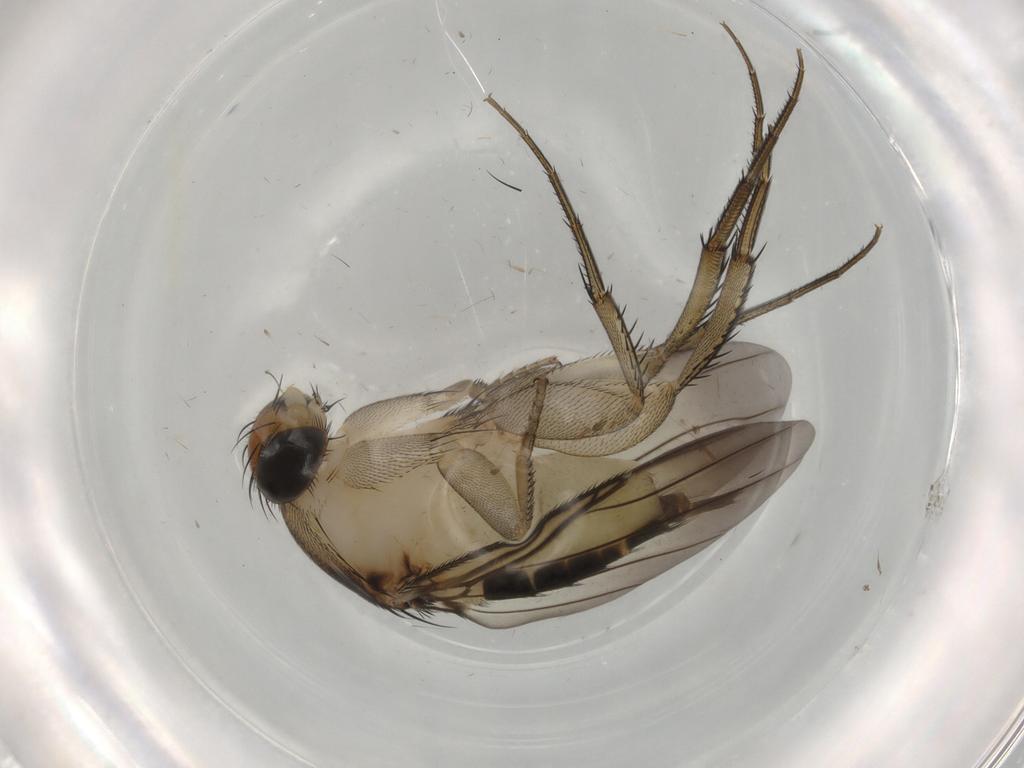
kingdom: Animalia
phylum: Arthropoda
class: Insecta
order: Diptera
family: Phoridae
